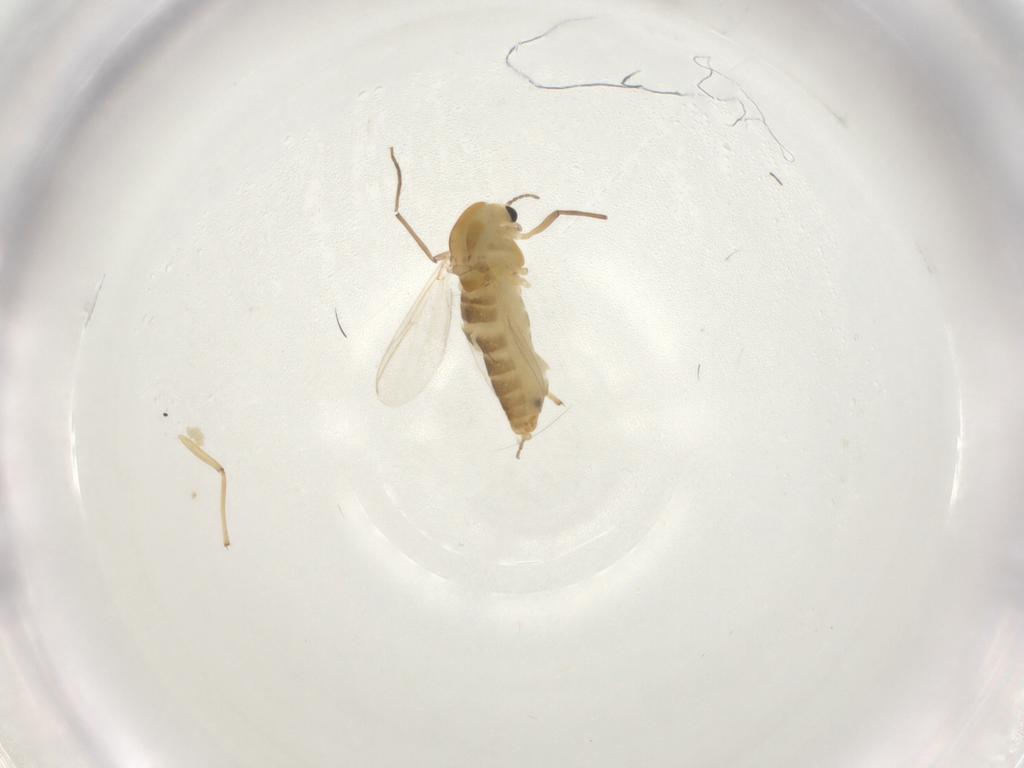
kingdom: Animalia
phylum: Arthropoda
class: Insecta
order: Diptera
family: Chironomidae
